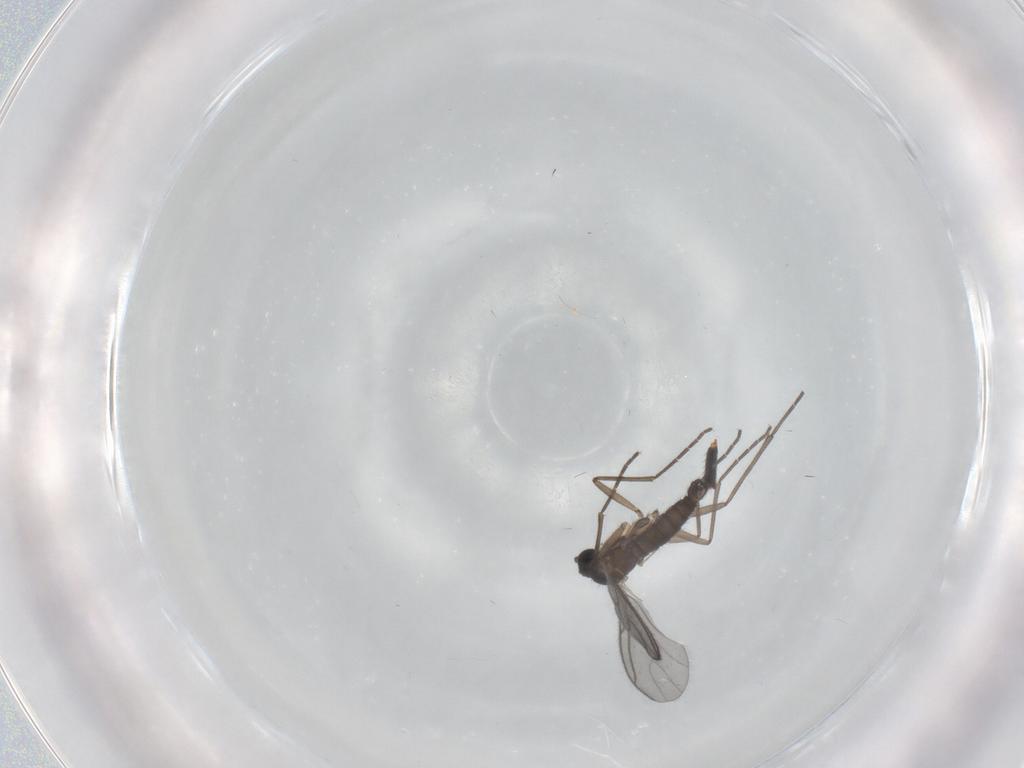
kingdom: Animalia
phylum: Arthropoda
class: Insecta
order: Diptera
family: Sciaridae
